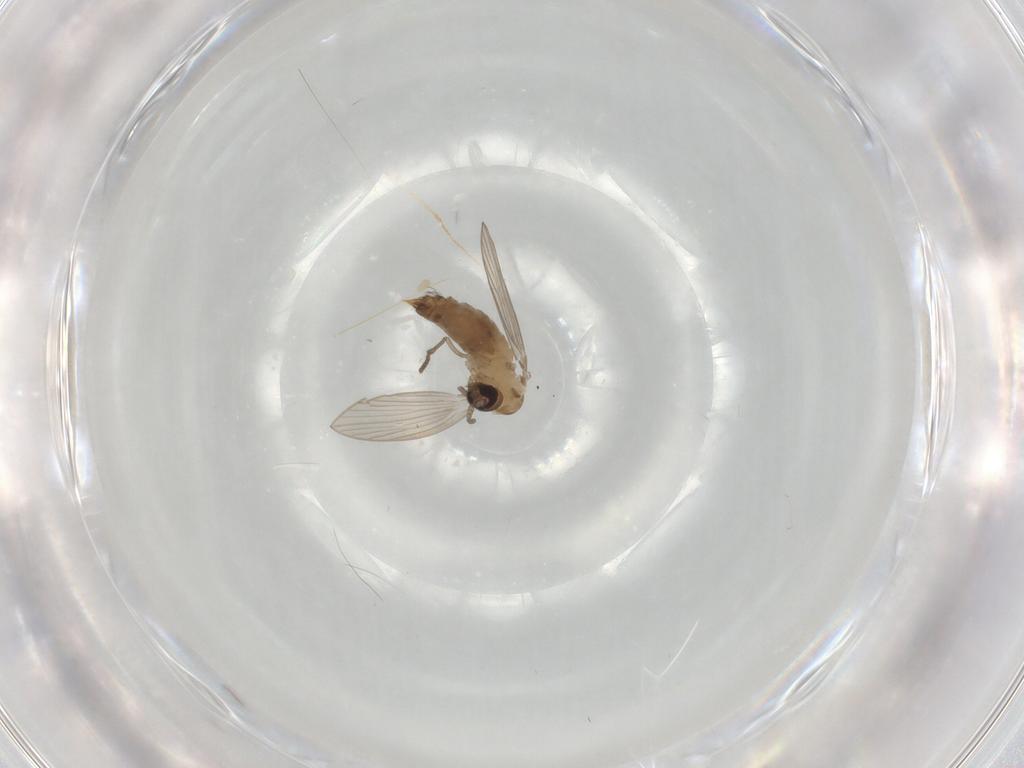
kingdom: Animalia
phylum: Arthropoda
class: Insecta
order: Diptera
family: Psychodidae
